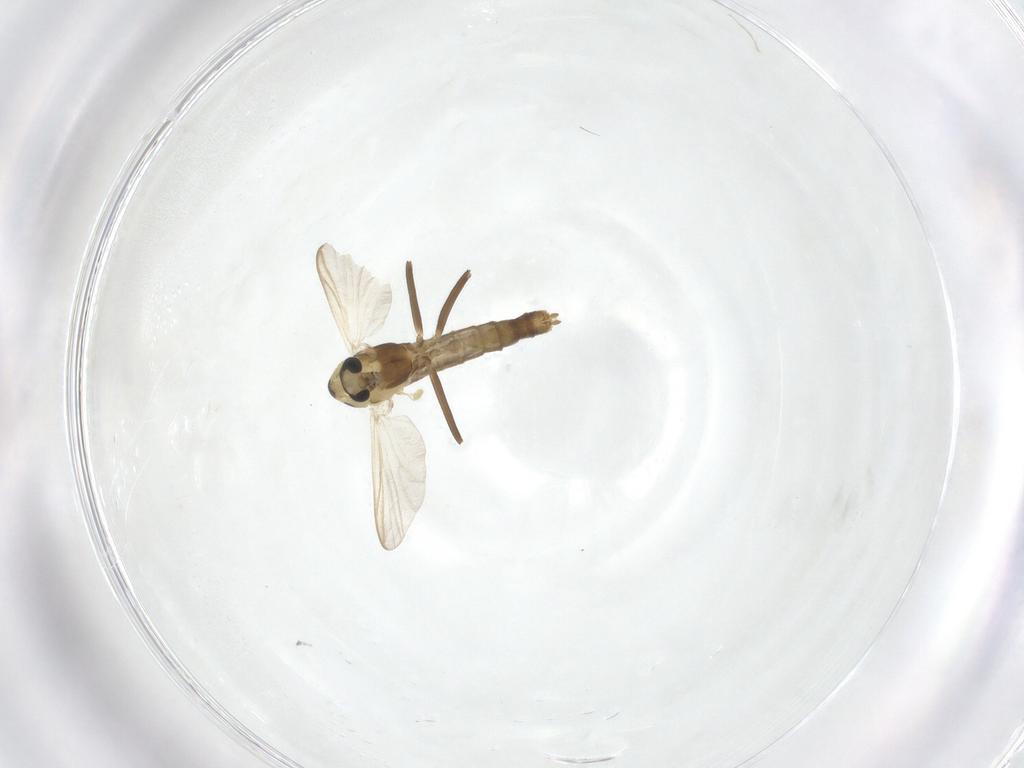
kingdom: Animalia
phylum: Arthropoda
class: Insecta
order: Diptera
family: Chironomidae
